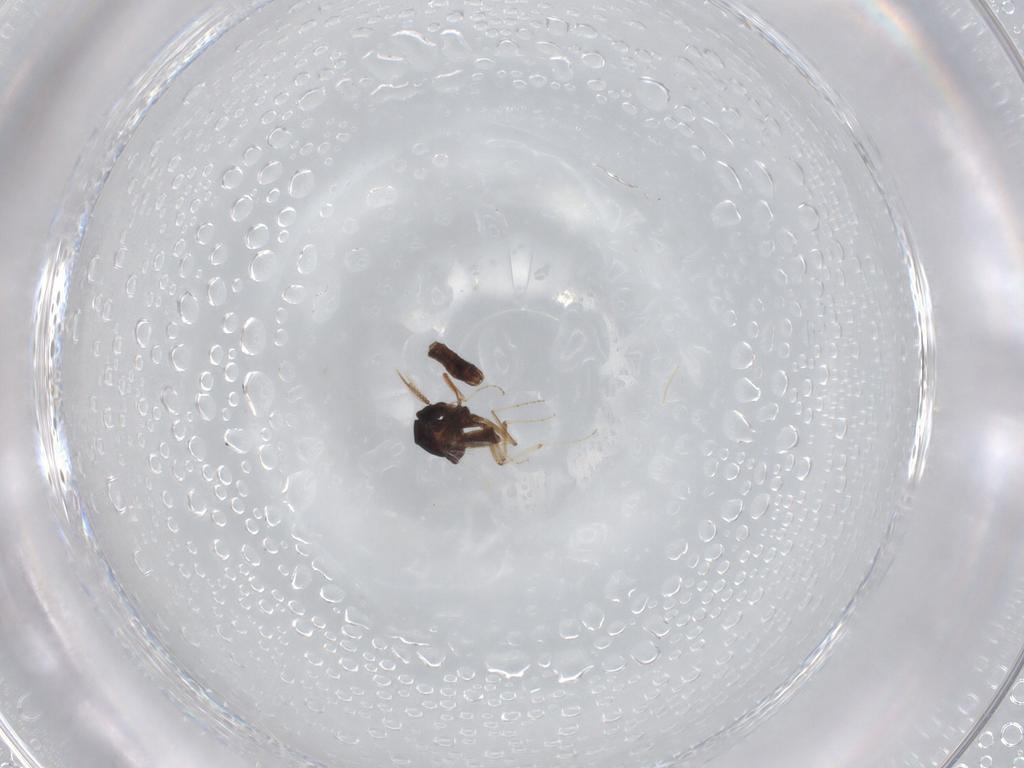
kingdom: Animalia
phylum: Arthropoda
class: Insecta
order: Diptera
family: Ceratopogonidae
